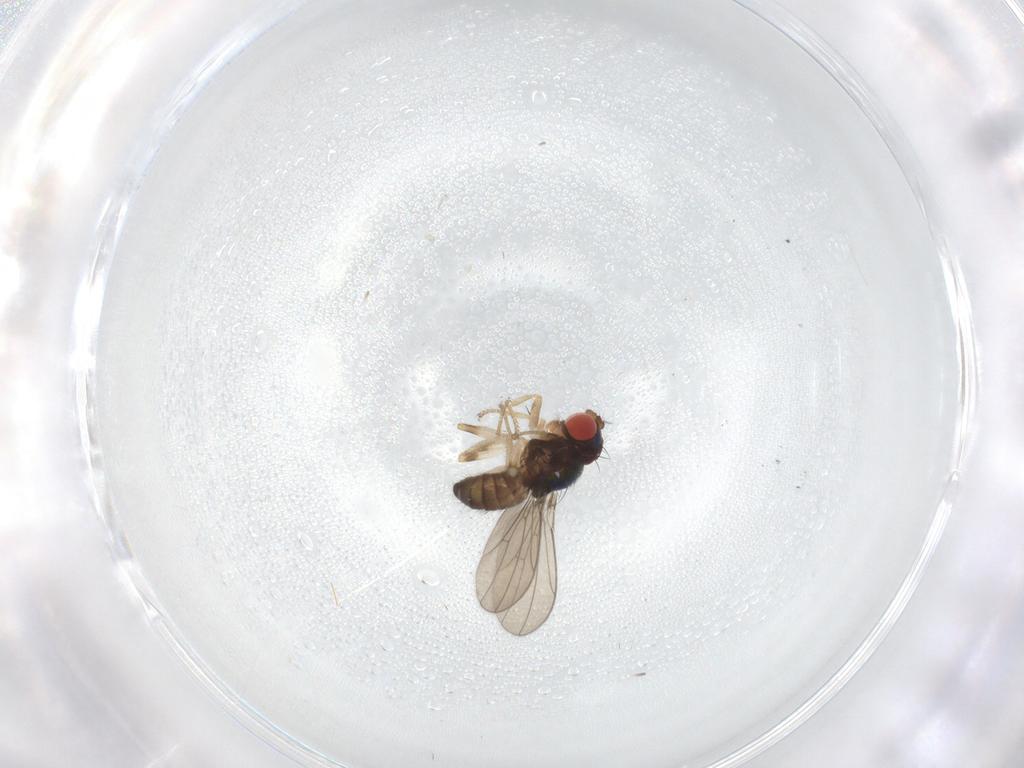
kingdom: Animalia
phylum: Arthropoda
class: Insecta
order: Diptera
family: Drosophilidae
